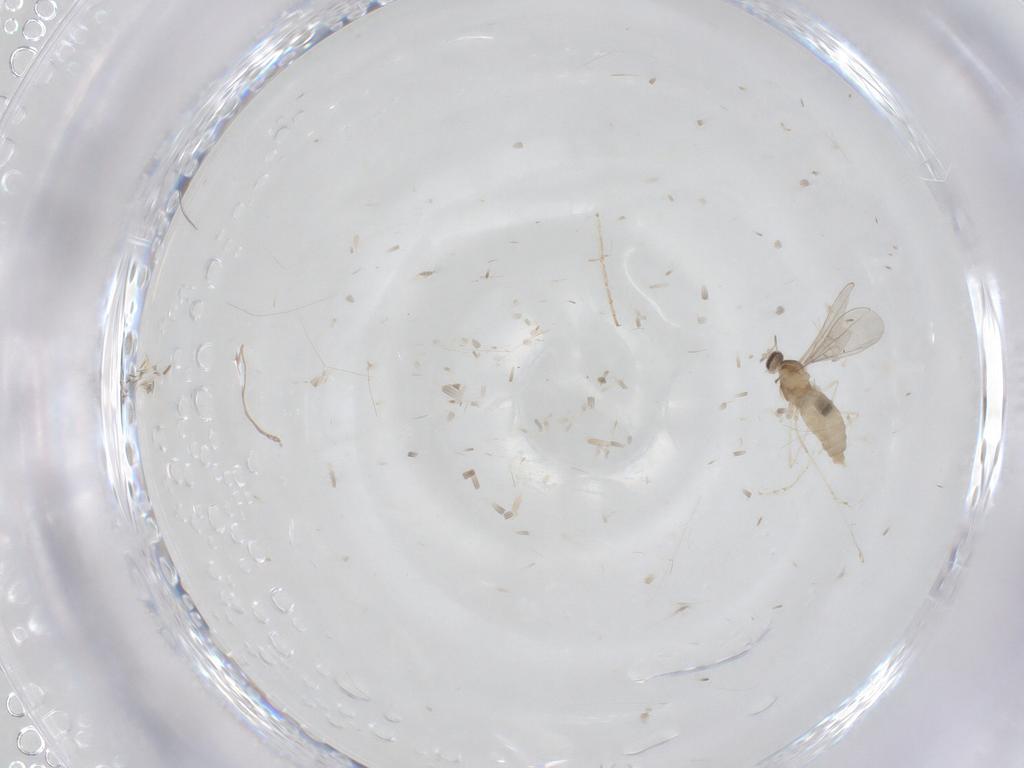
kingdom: Animalia
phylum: Arthropoda
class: Insecta
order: Diptera
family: Cecidomyiidae
